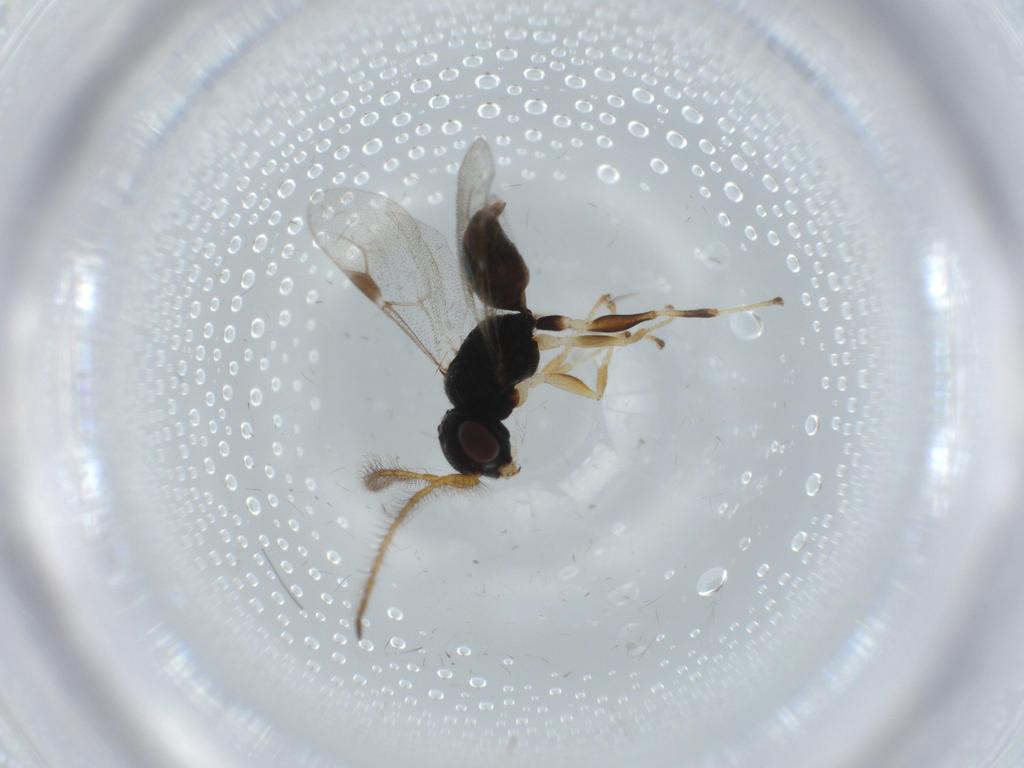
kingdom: Animalia
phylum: Arthropoda
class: Insecta
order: Hymenoptera
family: Dryinidae
